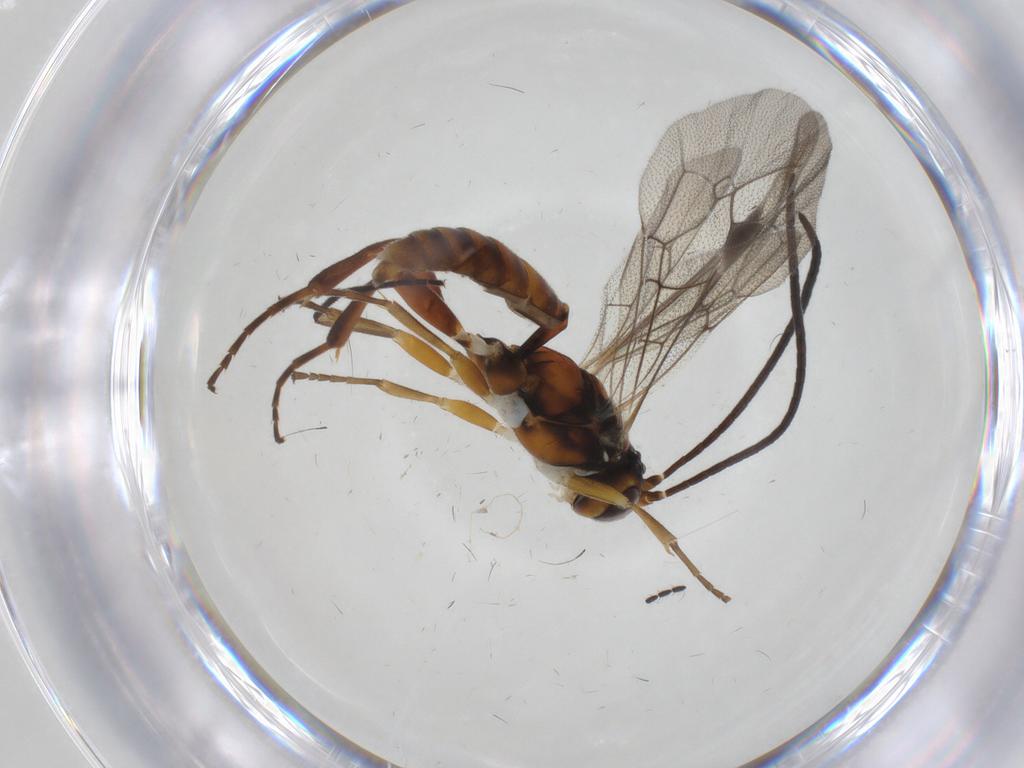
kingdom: Animalia
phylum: Arthropoda
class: Insecta
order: Hymenoptera
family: Ichneumonidae
